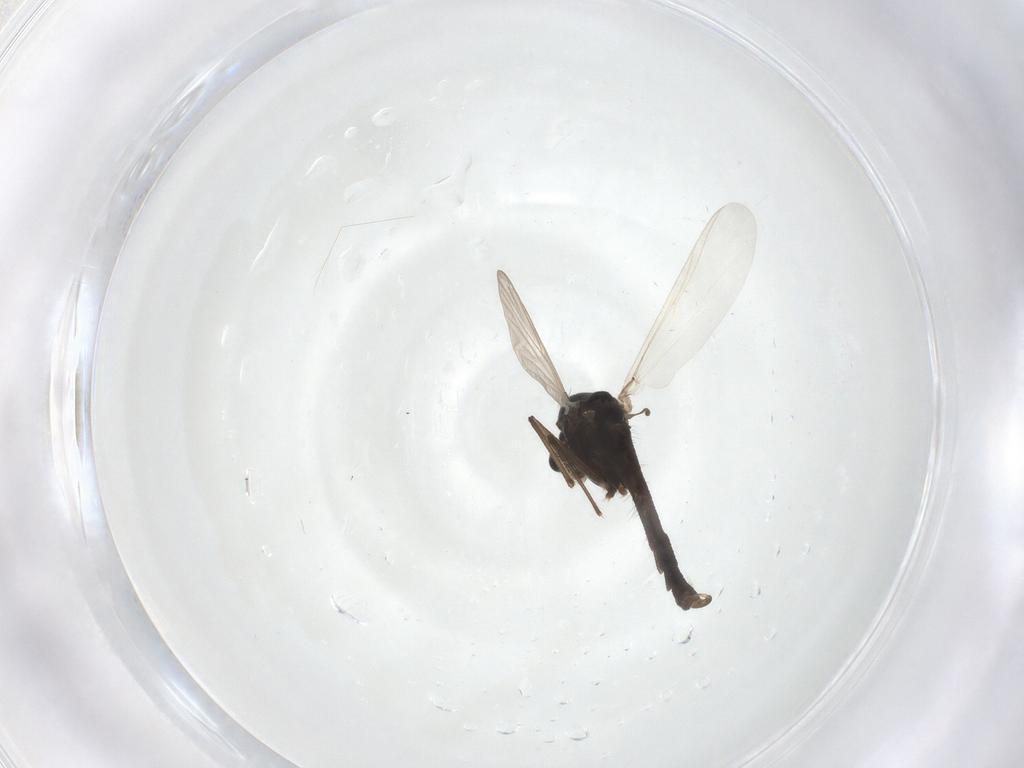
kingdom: Animalia
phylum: Arthropoda
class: Insecta
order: Diptera
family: Chironomidae
